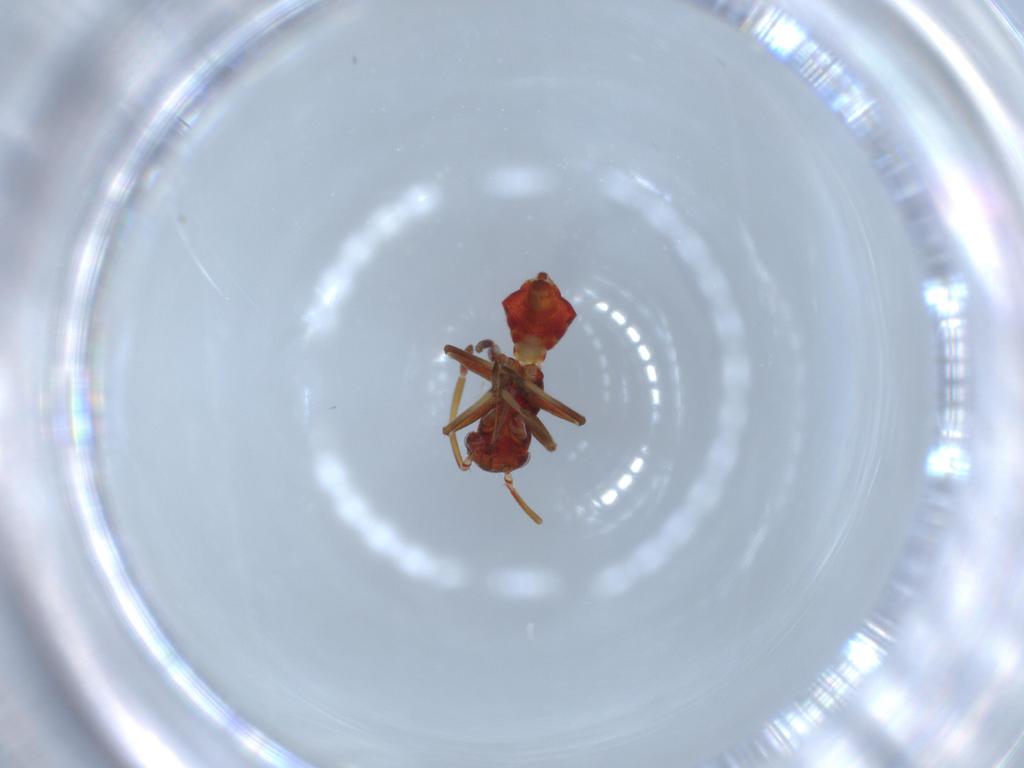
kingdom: Animalia
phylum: Arthropoda
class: Insecta
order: Hemiptera
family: Miridae
